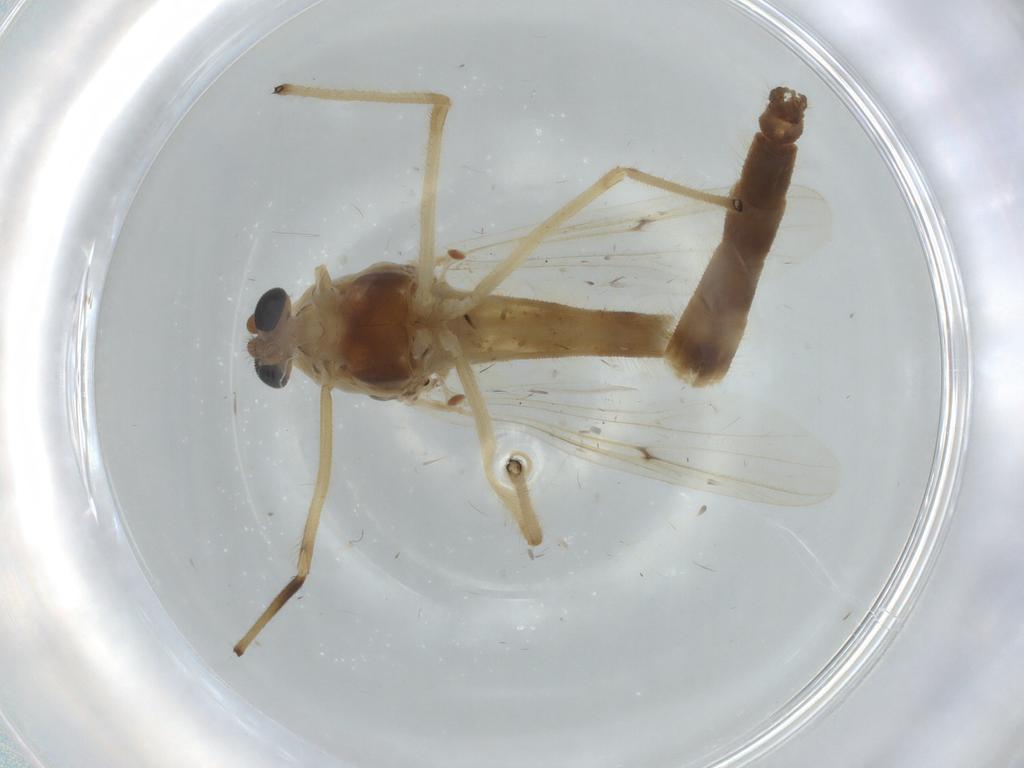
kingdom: Animalia
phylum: Arthropoda
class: Insecta
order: Diptera
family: Chironomidae
